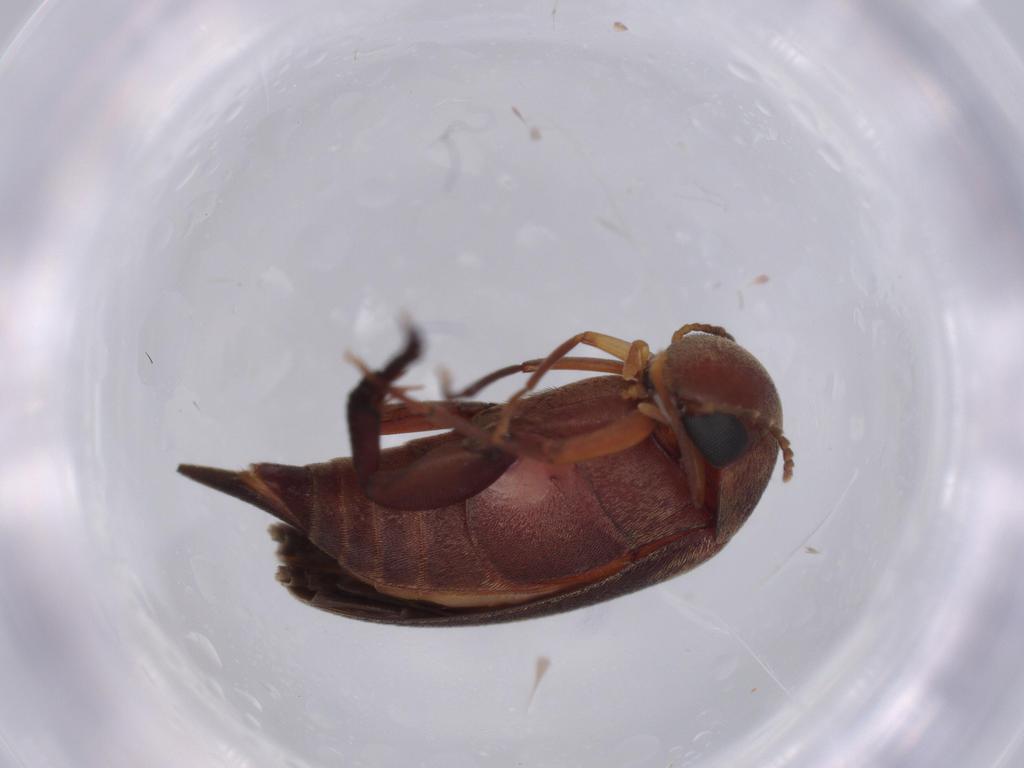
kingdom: Animalia
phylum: Arthropoda
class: Insecta
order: Coleoptera
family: Mordellidae
